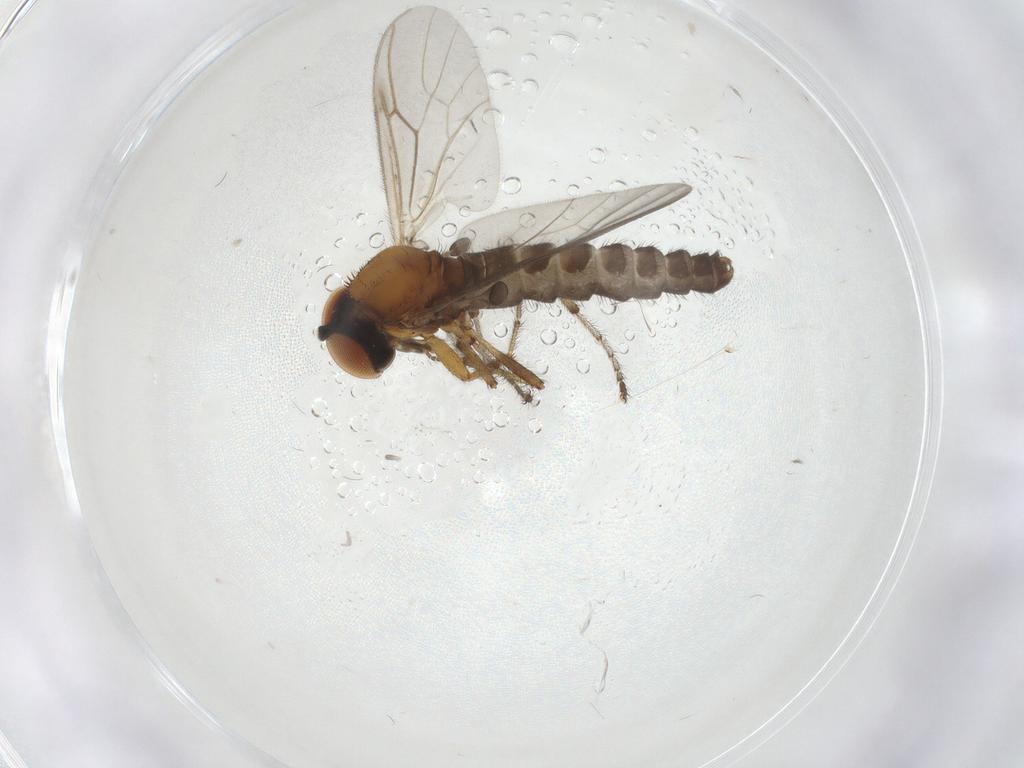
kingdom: Animalia
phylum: Arthropoda
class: Insecta
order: Diptera
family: Bibionidae
